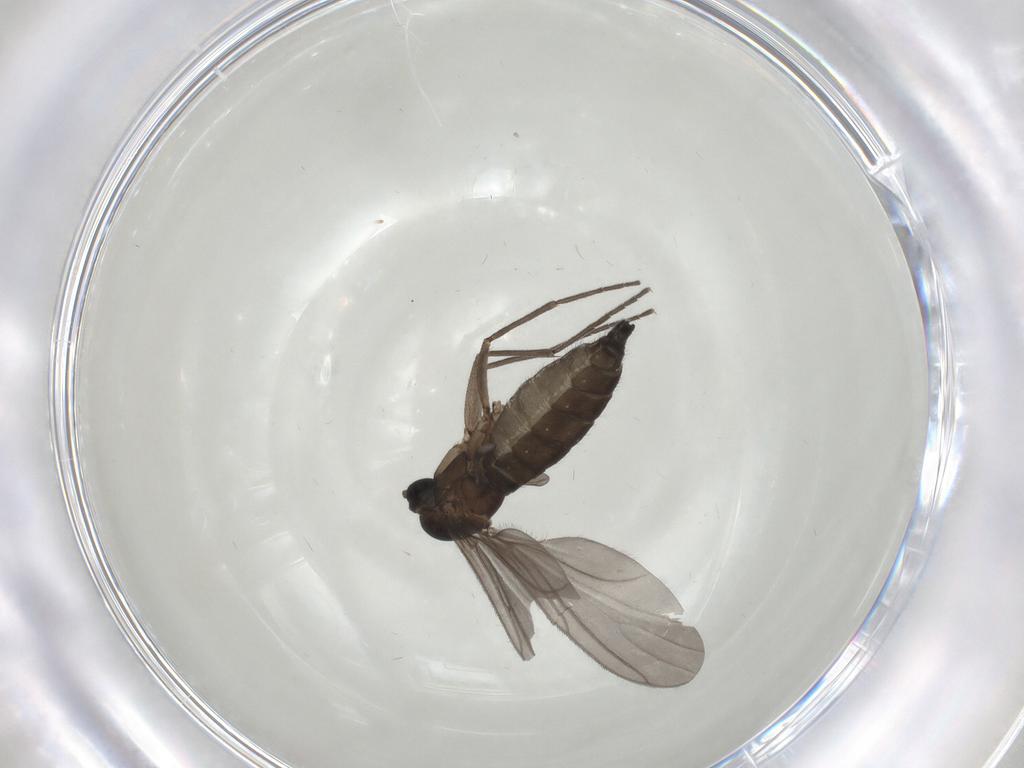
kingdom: Animalia
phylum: Arthropoda
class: Insecta
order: Diptera
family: Sciaridae
